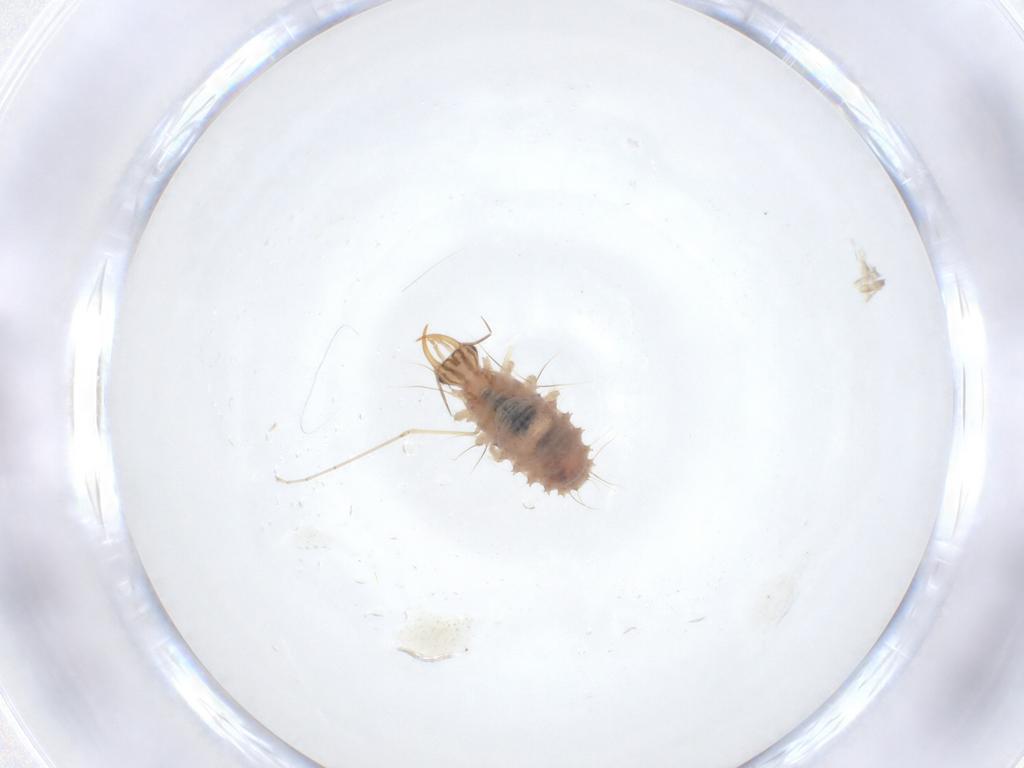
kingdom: Animalia
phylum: Arthropoda
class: Insecta
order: Neuroptera
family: Chrysopidae
